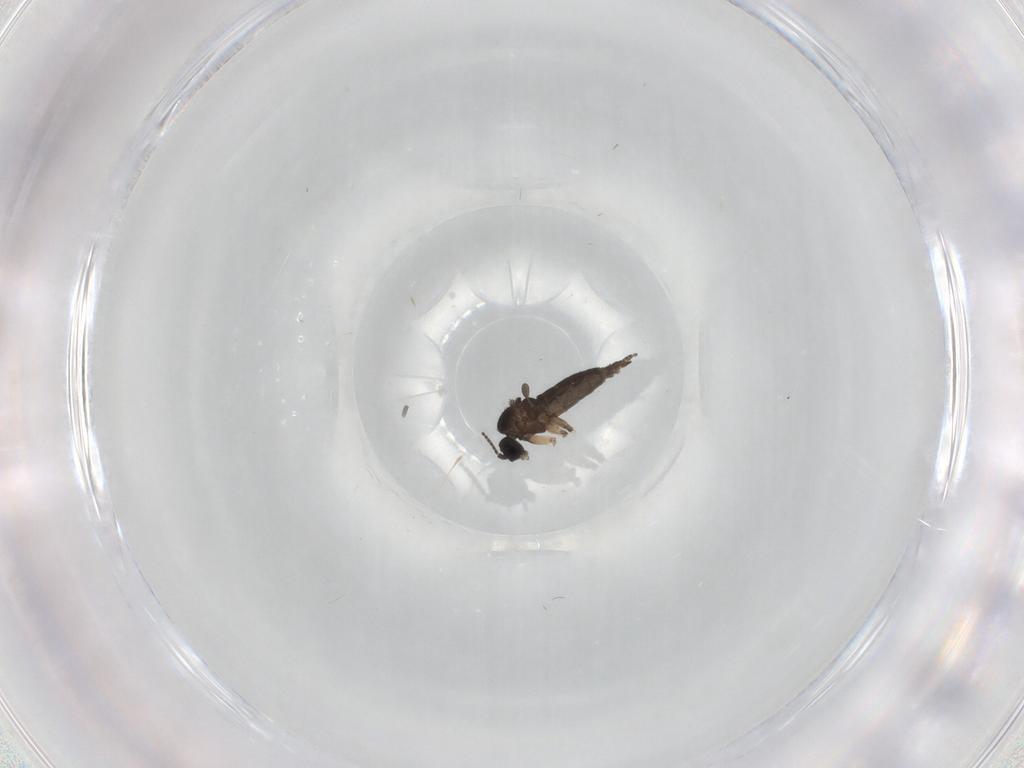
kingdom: Animalia
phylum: Arthropoda
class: Insecta
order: Diptera
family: Sciaridae
